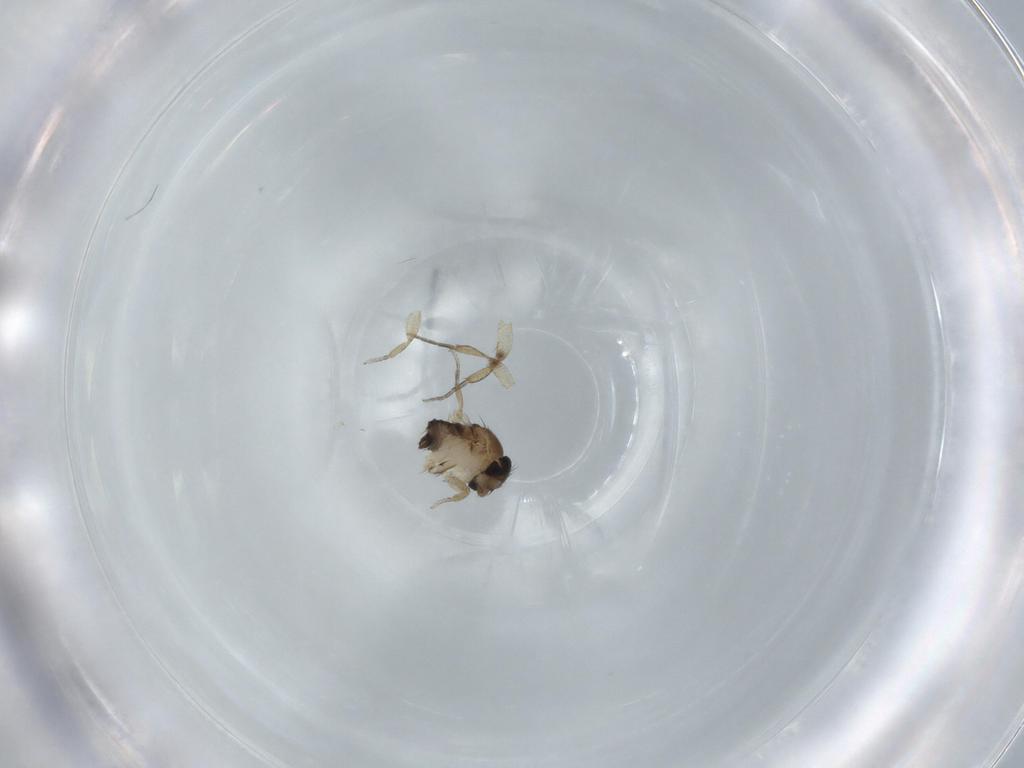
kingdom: Animalia
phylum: Arthropoda
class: Insecta
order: Diptera
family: Phoridae
